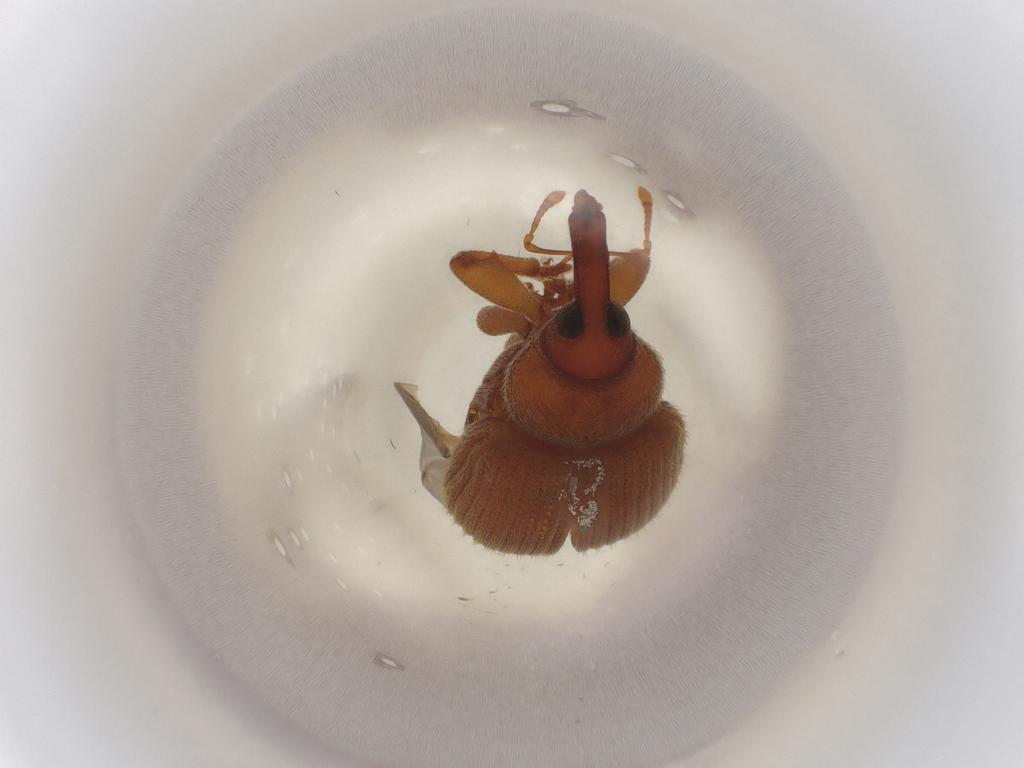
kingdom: Animalia
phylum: Arthropoda
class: Insecta
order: Coleoptera
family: Curculionidae
